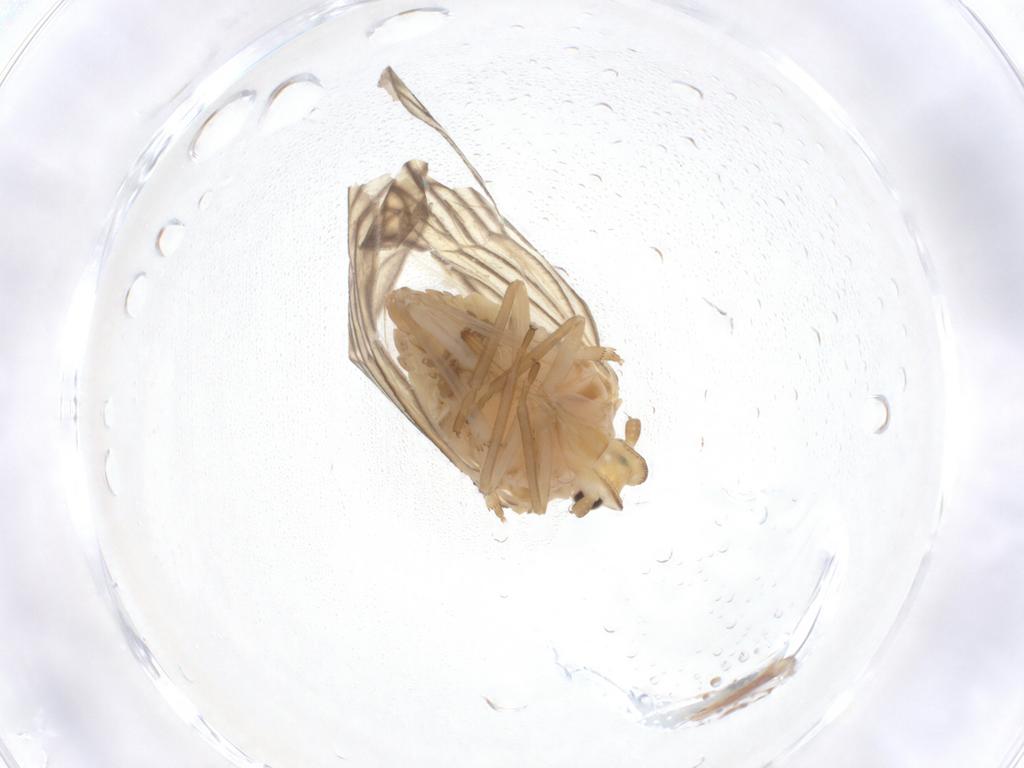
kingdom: Animalia
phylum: Arthropoda
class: Insecta
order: Hemiptera
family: Meenoplidae
